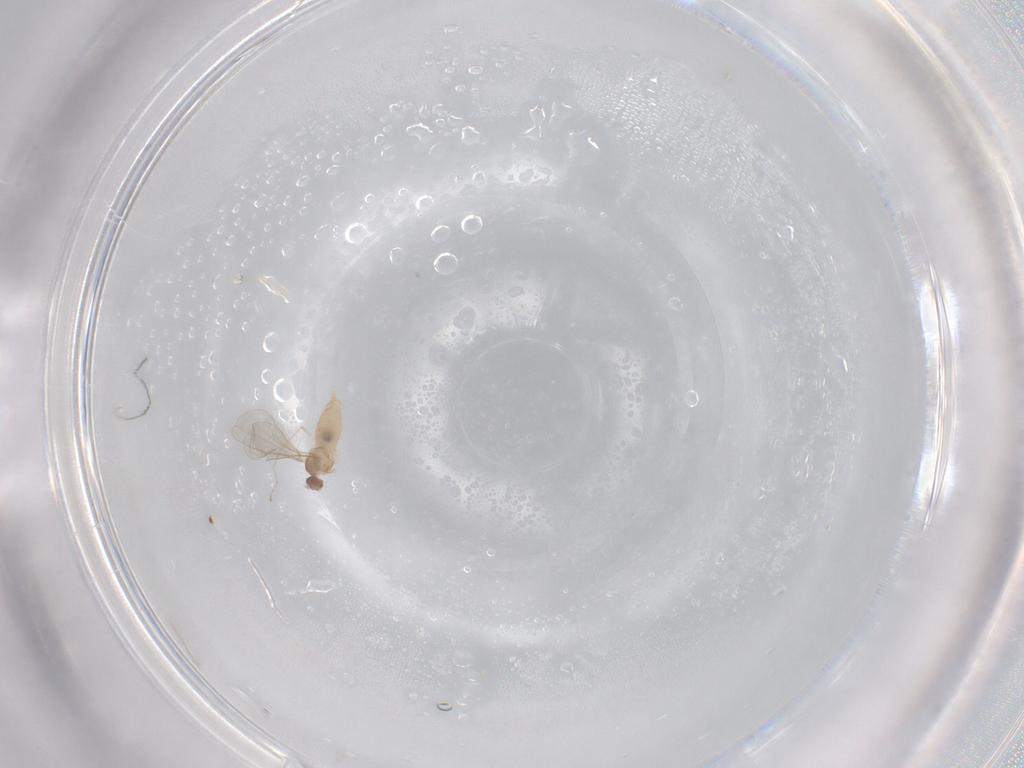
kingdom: Animalia
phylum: Arthropoda
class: Insecta
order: Diptera
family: Cecidomyiidae
